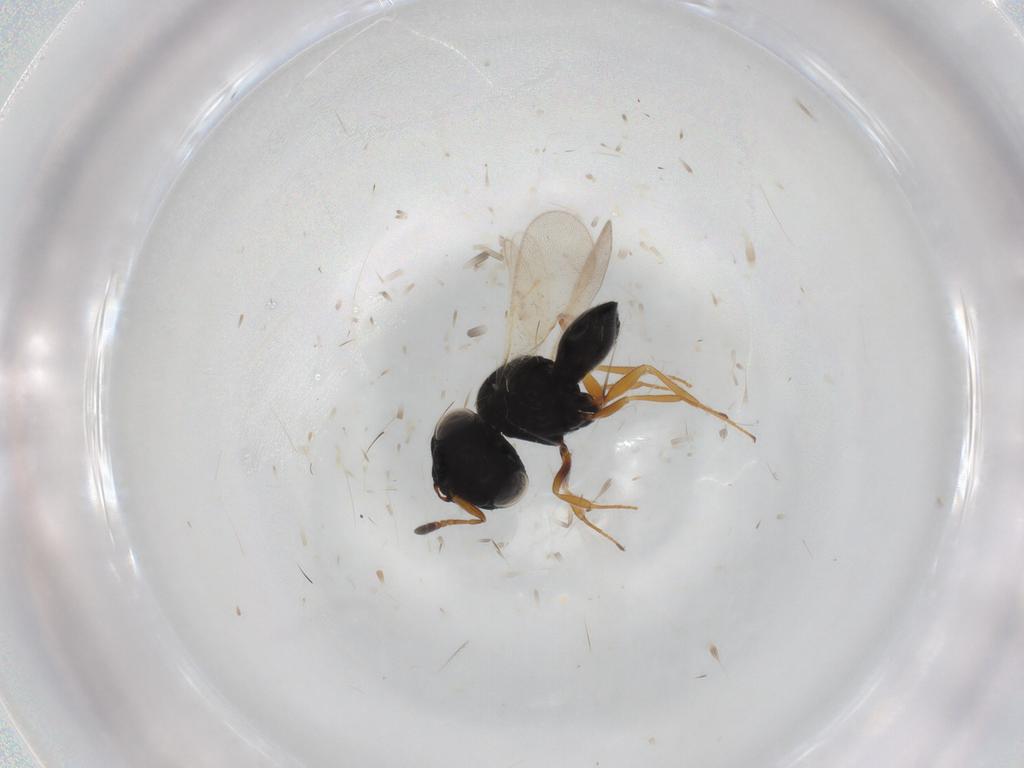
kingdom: Animalia
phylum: Arthropoda
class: Insecta
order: Hymenoptera
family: Scelionidae
